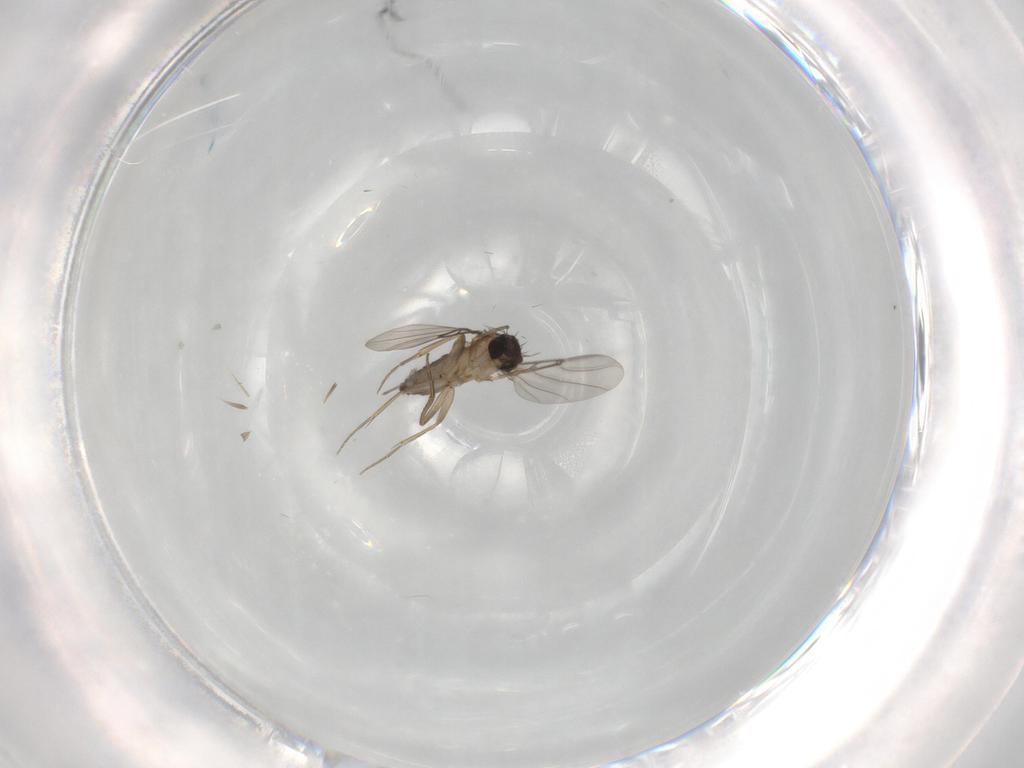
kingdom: Animalia
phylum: Arthropoda
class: Insecta
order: Diptera
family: Phoridae
